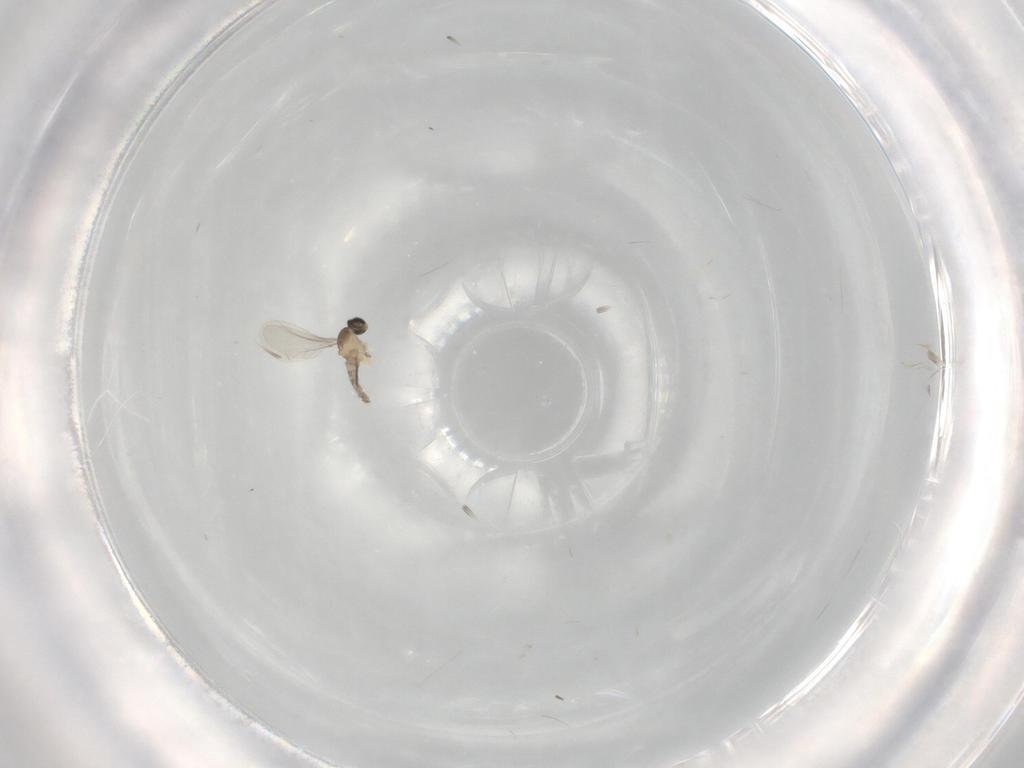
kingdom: Animalia
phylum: Arthropoda
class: Insecta
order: Diptera
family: Cecidomyiidae
